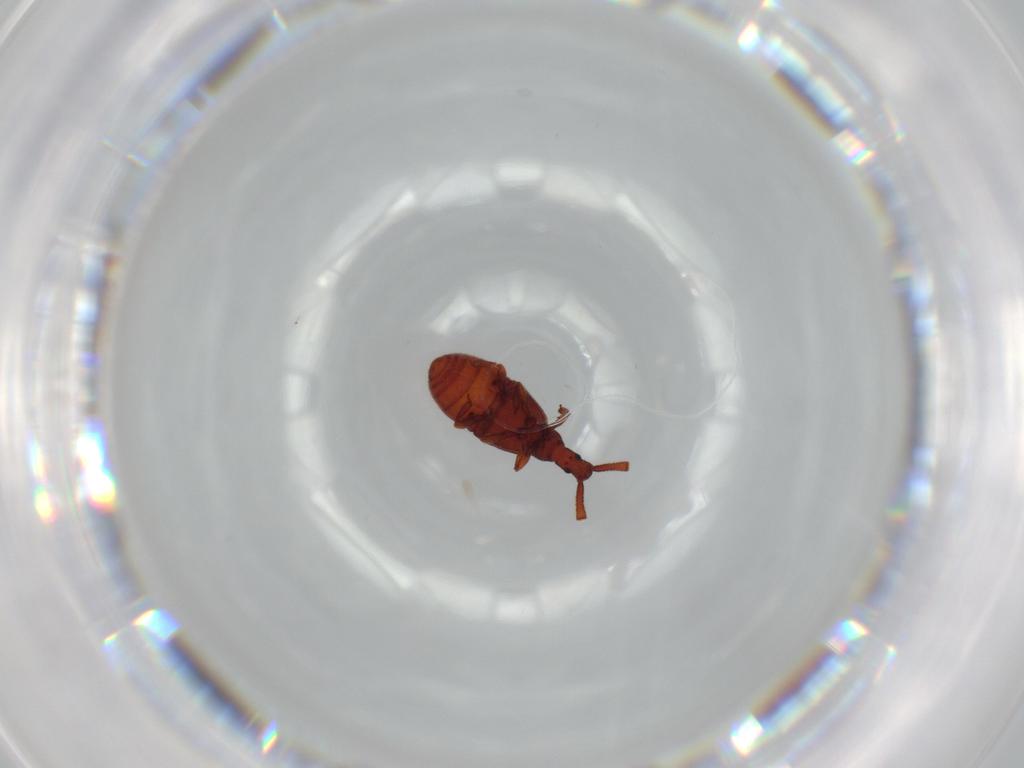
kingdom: Animalia
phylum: Arthropoda
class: Insecta
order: Coleoptera
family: Staphylinidae
